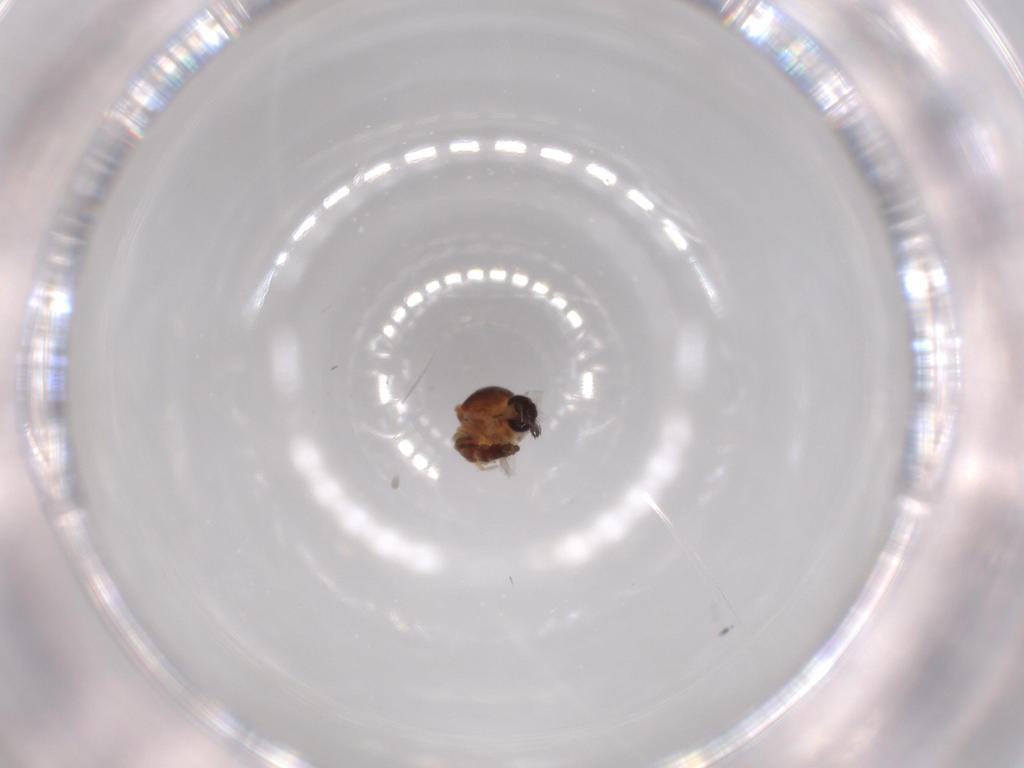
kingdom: Animalia
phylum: Arthropoda
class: Insecta
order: Diptera
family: Ceratopogonidae
